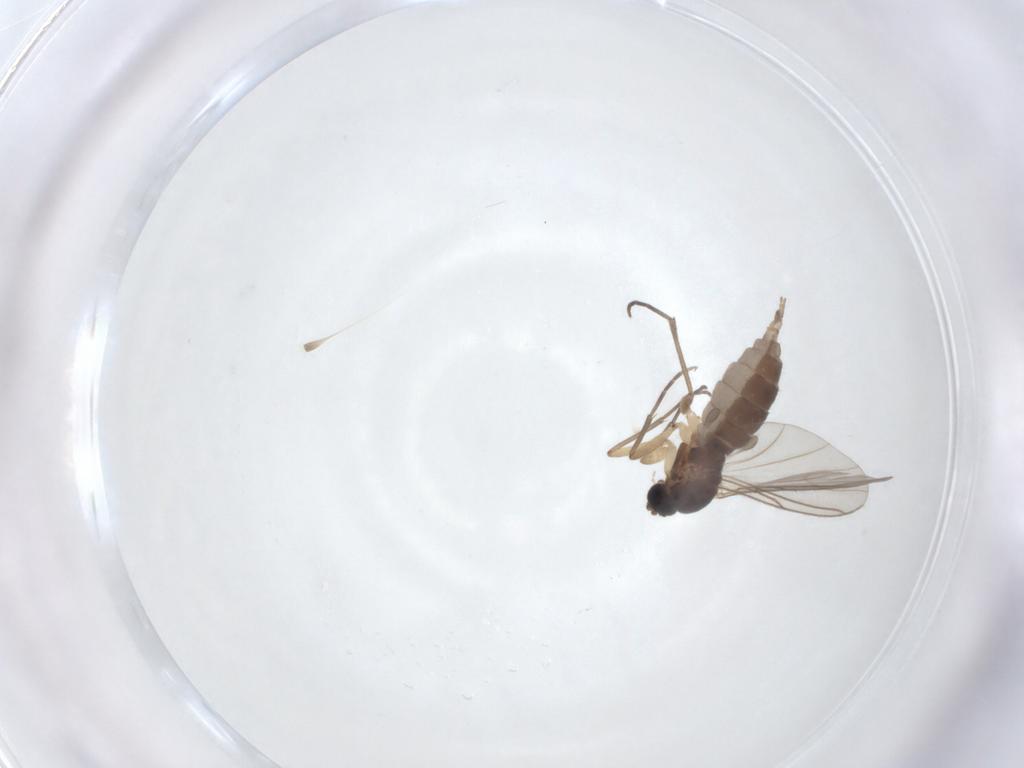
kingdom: Animalia
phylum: Arthropoda
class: Insecta
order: Diptera
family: Sciaridae
